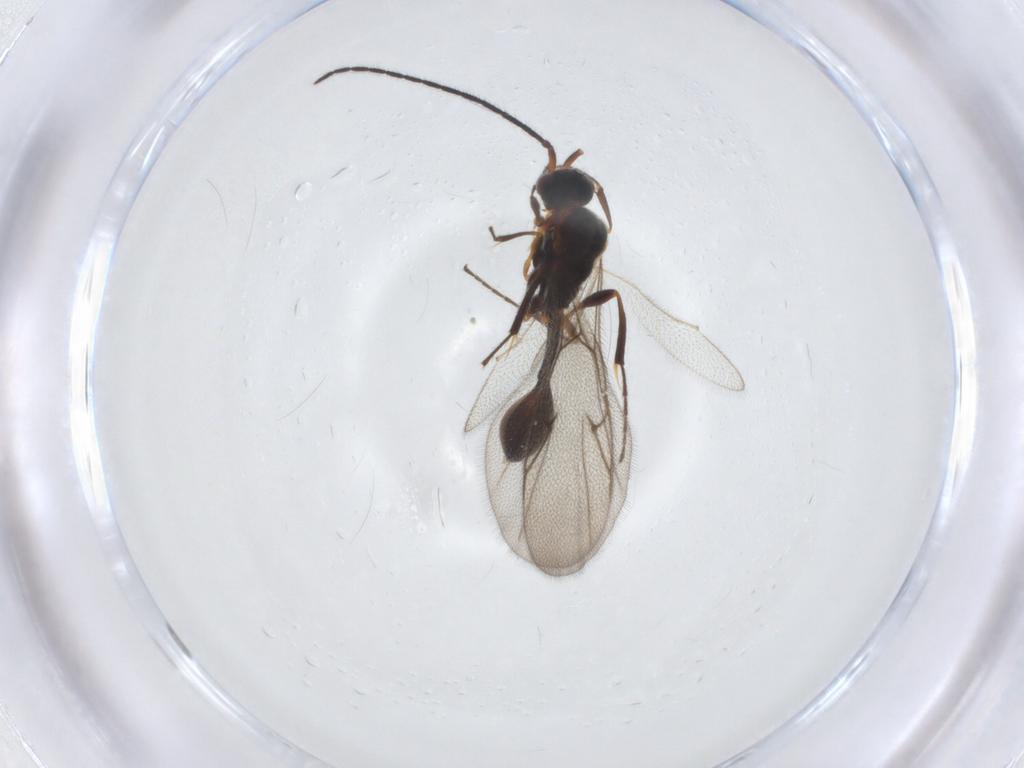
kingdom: Animalia
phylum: Arthropoda
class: Insecta
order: Hymenoptera
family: Diapriidae
